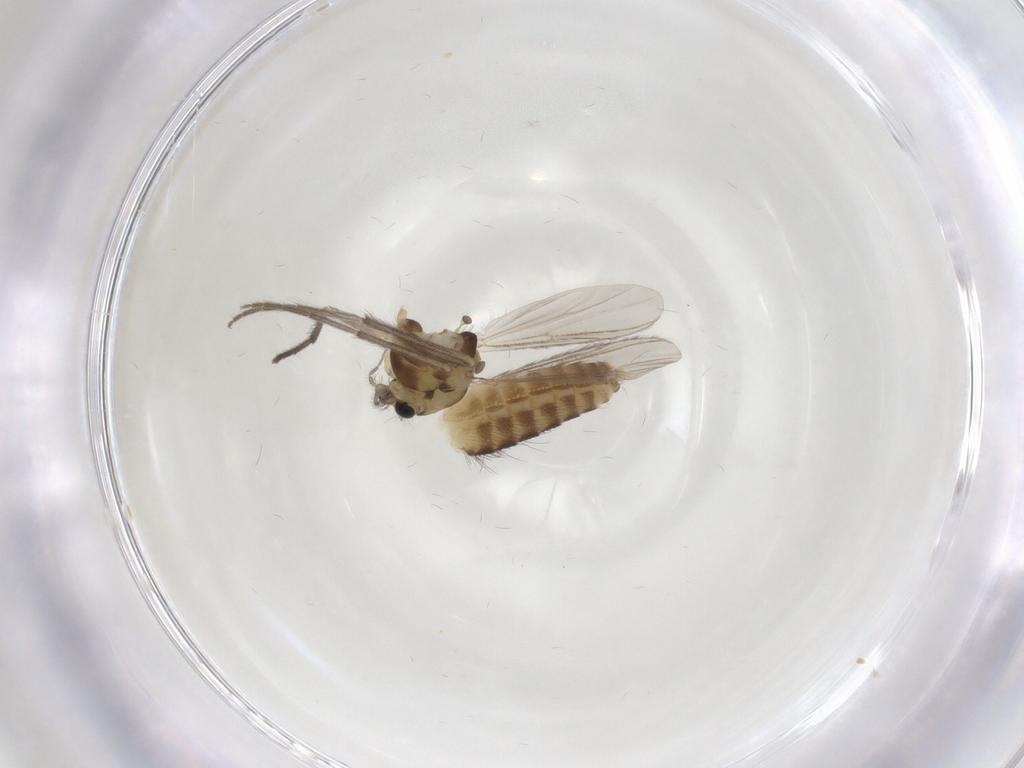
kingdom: Animalia
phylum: Arthropoda
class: Insecta
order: Diptera
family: Chironomidae
